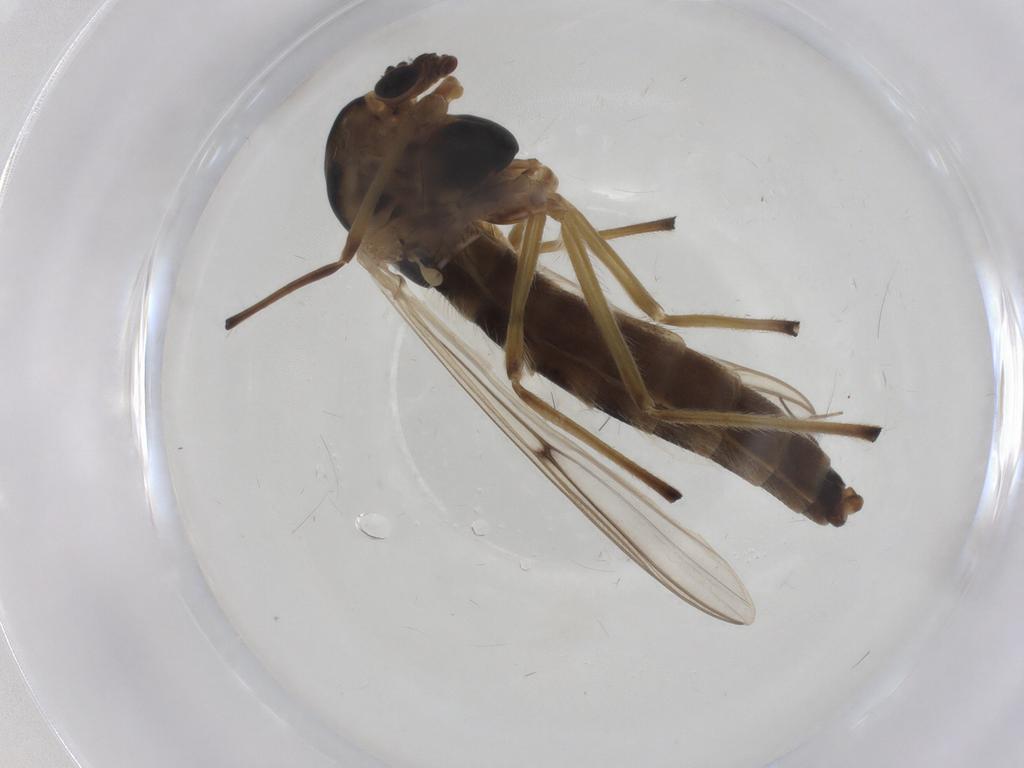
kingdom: Animalia
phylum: Arthropoda
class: Insecta
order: Diptera
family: Chironomidae
